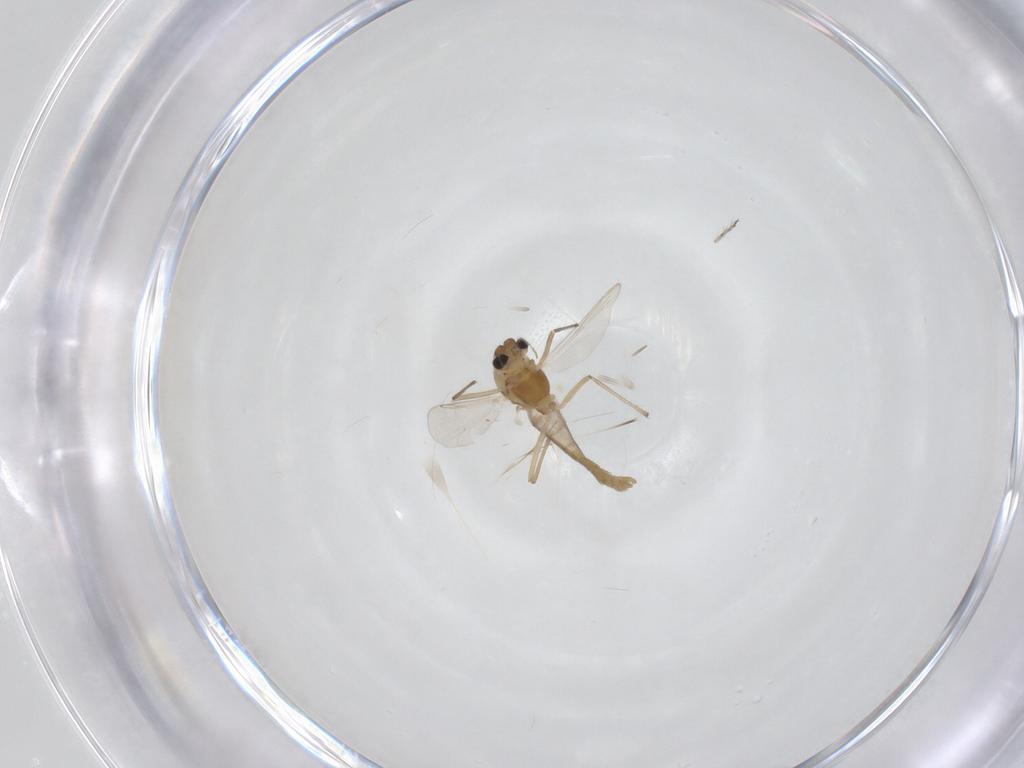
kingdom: Animalia
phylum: Arthropoda
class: Insecta
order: Diptera
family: Chironomidae
